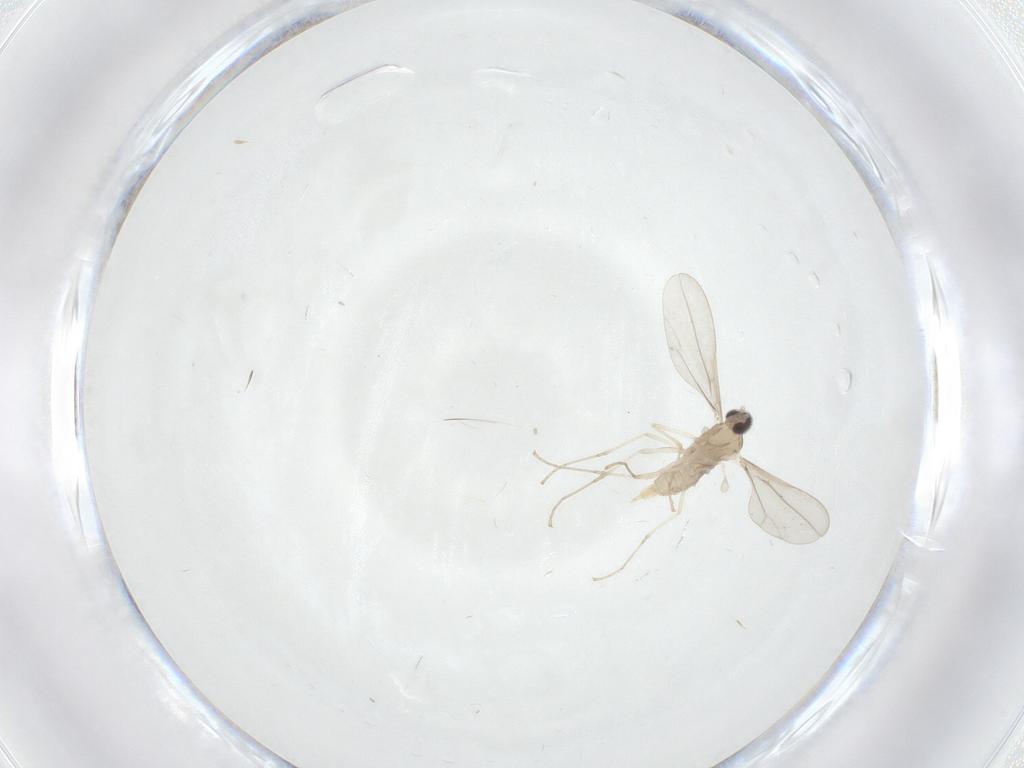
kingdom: Animalia
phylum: Arthropoda
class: Insecta
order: Diptera
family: Cecidomyiidae
